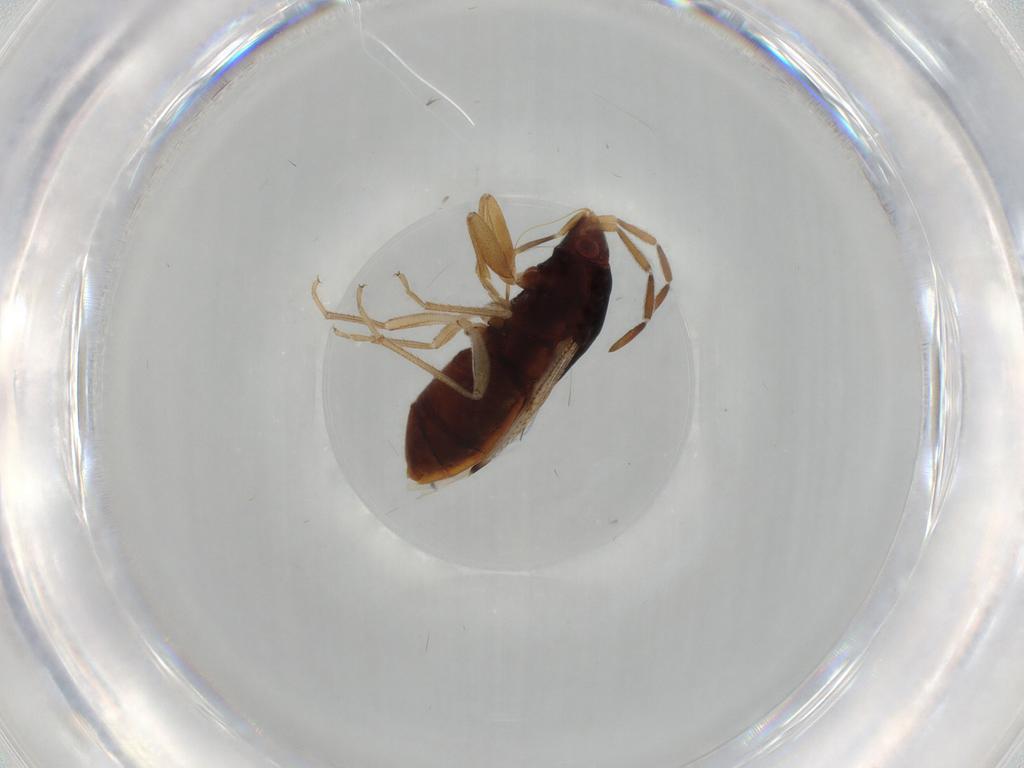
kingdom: Animalia
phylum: Arthropoda
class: Insecta
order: Hemiptera
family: Rhyparochromidae
